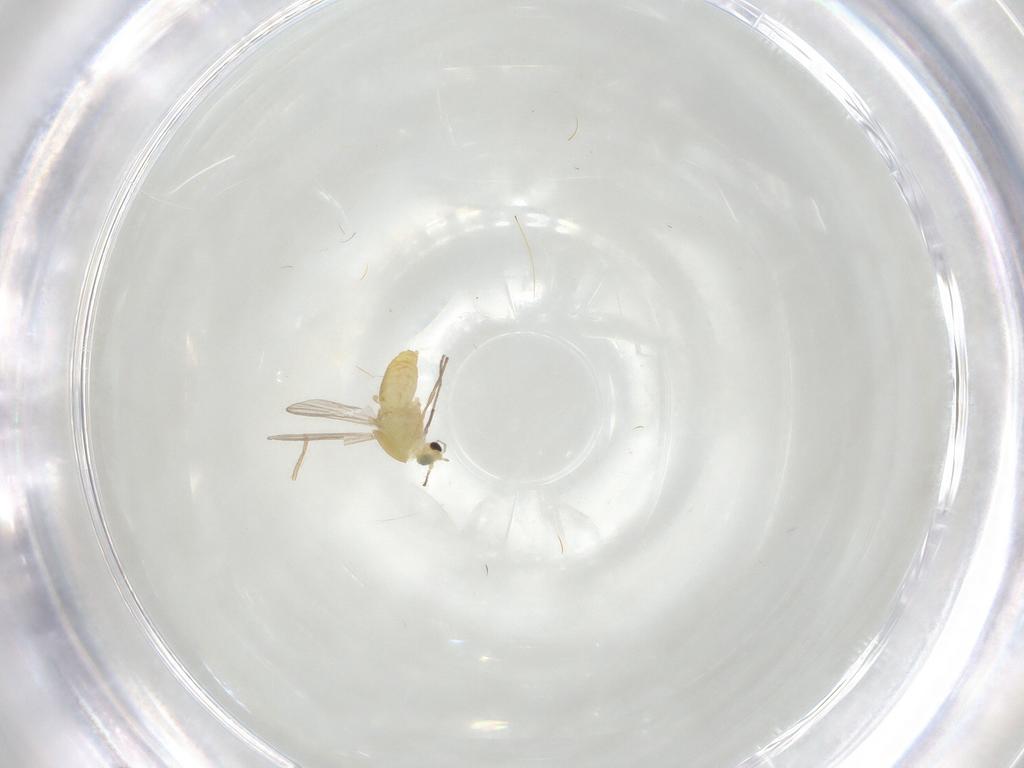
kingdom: Animalia
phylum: Arthropoda
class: Insecta
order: Diptera
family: Chironomidae
